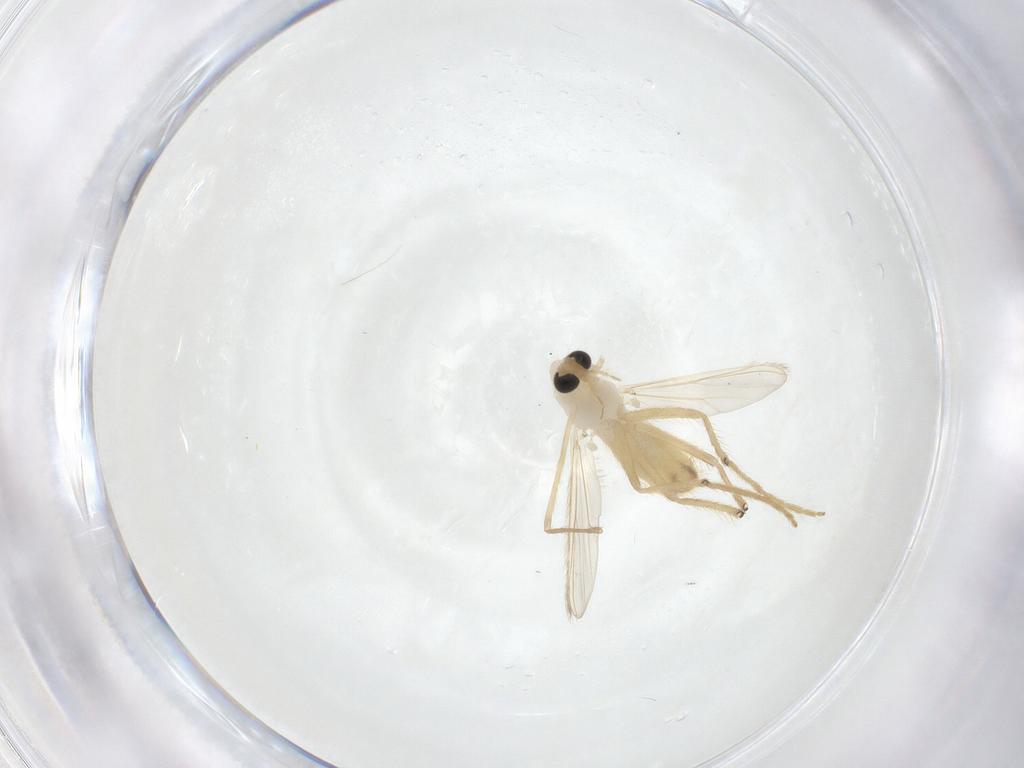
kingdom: Animalia
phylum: Arthropoda
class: Insecta
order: Diptera
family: Chironomidae
